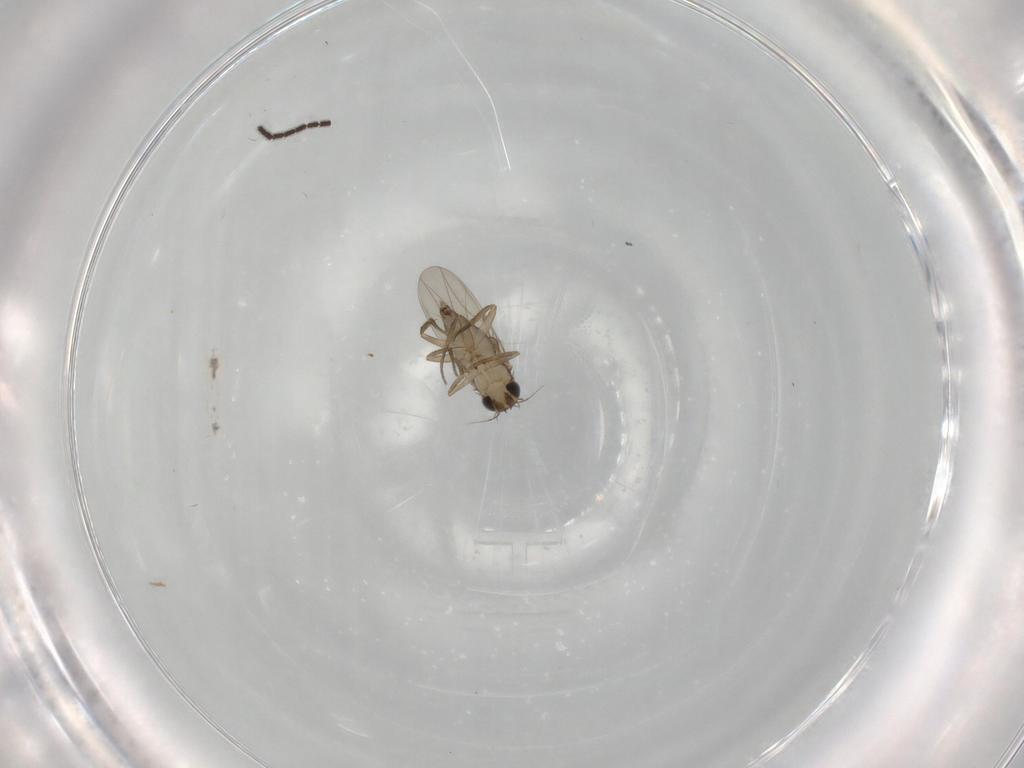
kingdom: Animalia
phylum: Arthropoda
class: Insecta
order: Diptera
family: Phoridae
